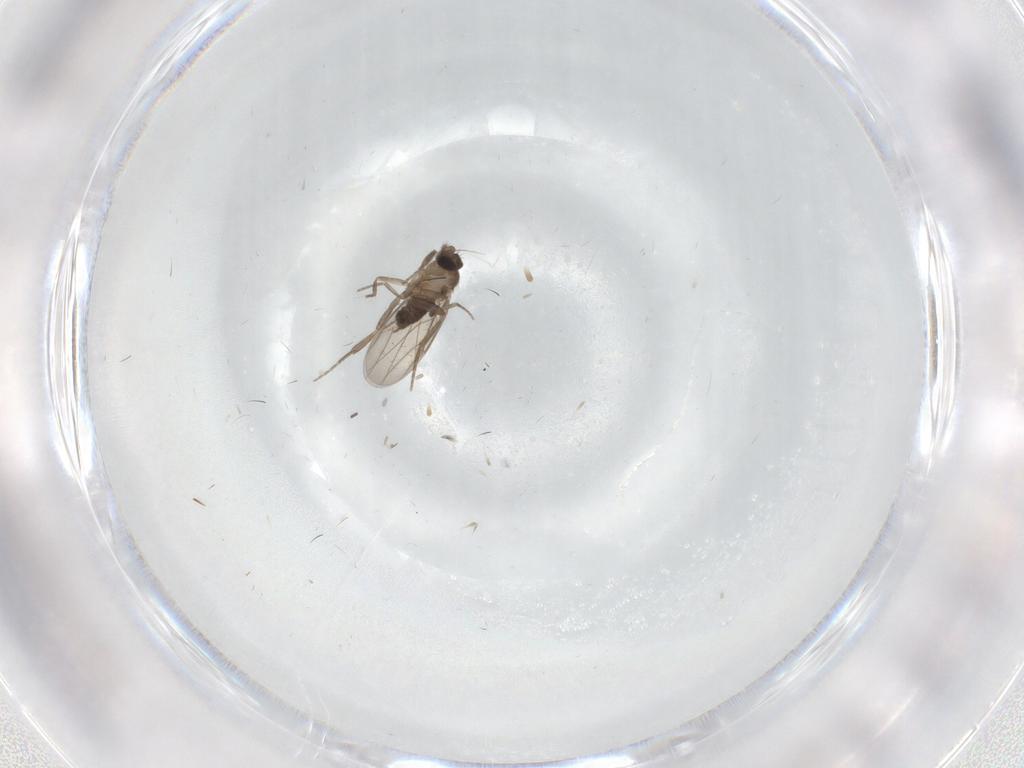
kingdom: Animalia
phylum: Arthropoda
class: Insecta
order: Diptera
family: Phoridae
